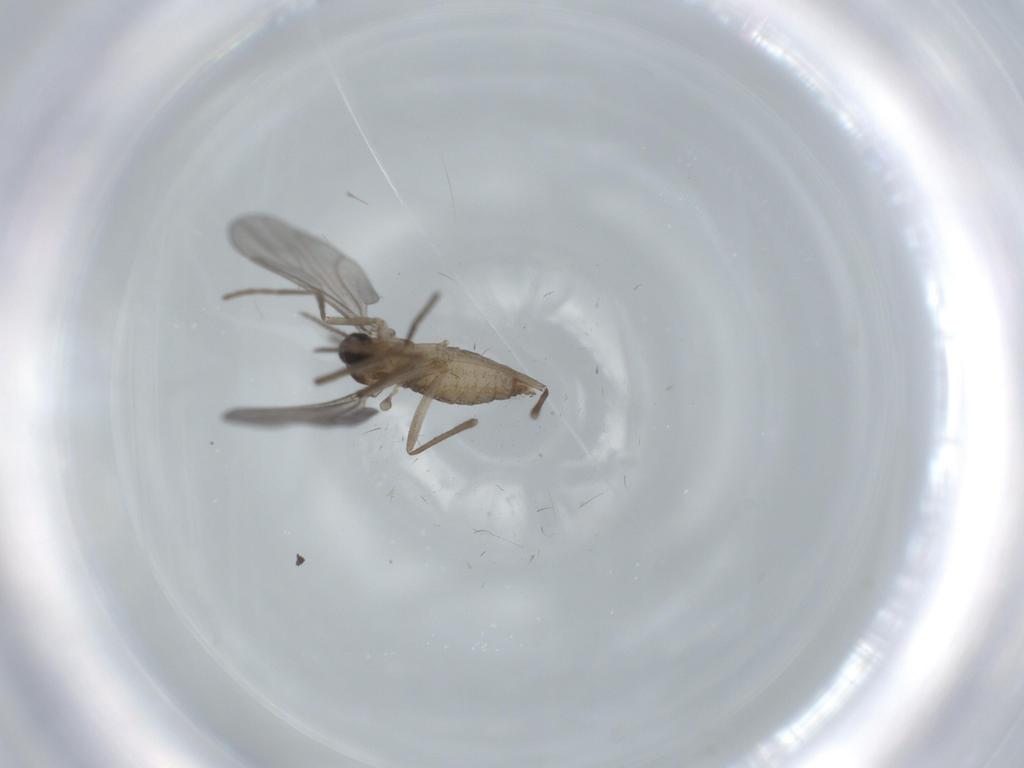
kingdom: Animalia
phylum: Arthropoda
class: Insecta
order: Diptera
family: Cecidomyiidae
